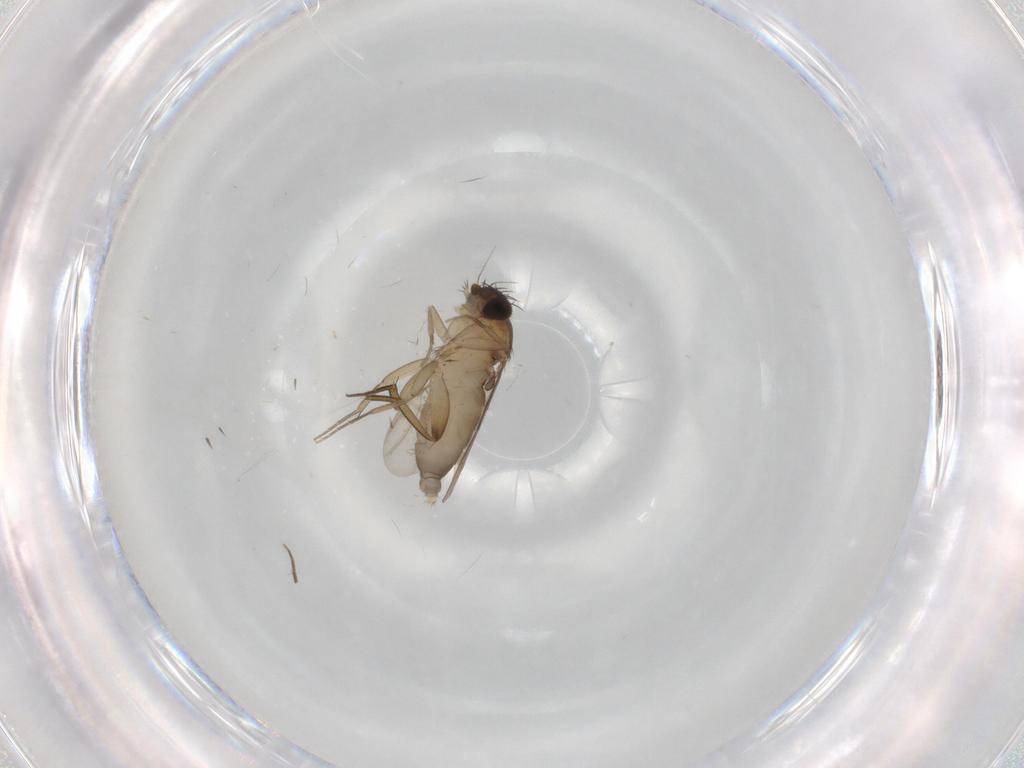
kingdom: Animalia
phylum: Arthropoda
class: Insecta
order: Diptera
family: Phoridae
